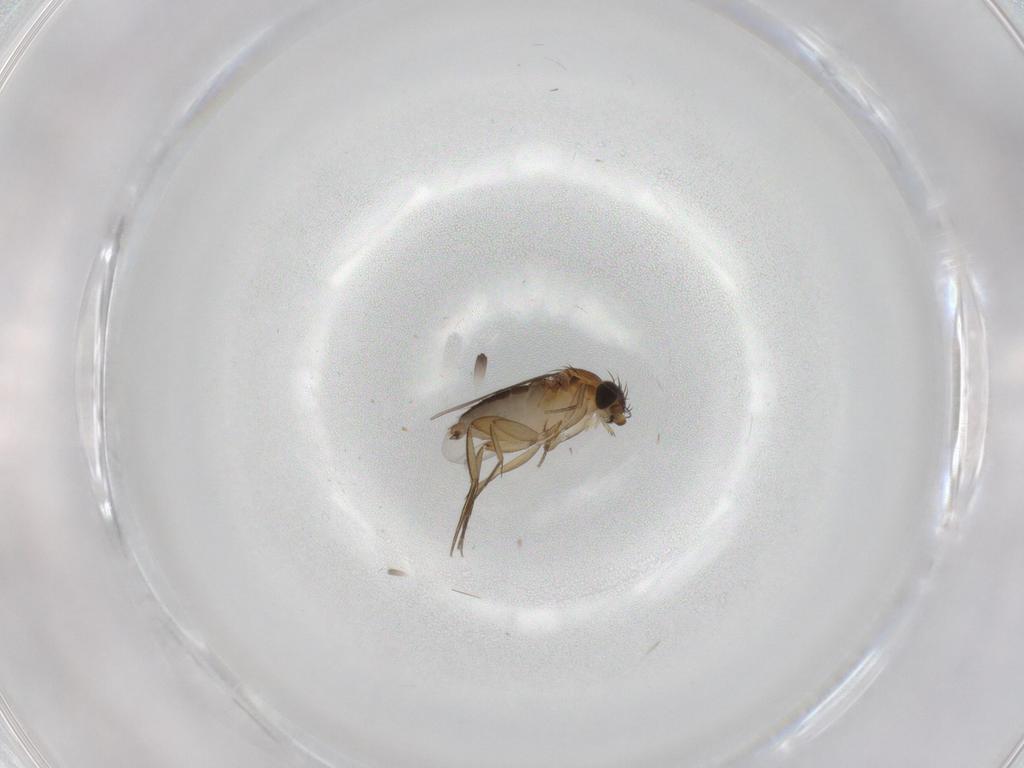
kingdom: Animalia
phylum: Arthropoda
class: Insecta
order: Diptera
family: Phoridae
